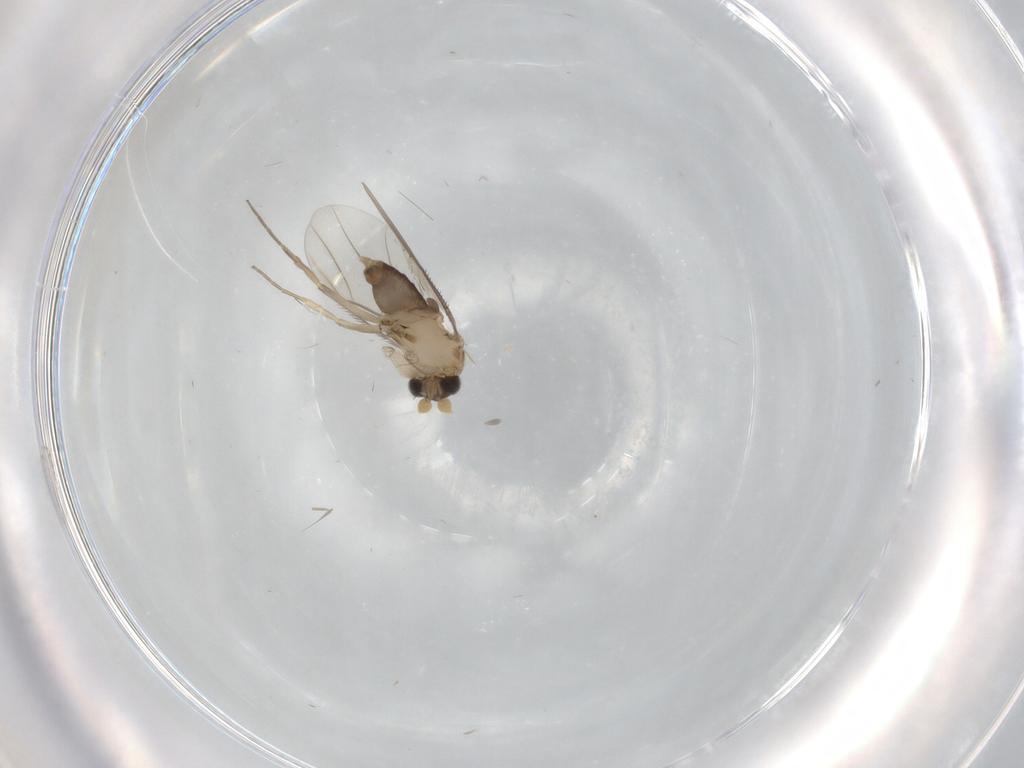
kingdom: Animalia
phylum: Arthropoda
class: Insecta
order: Diptera
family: Phoridae
